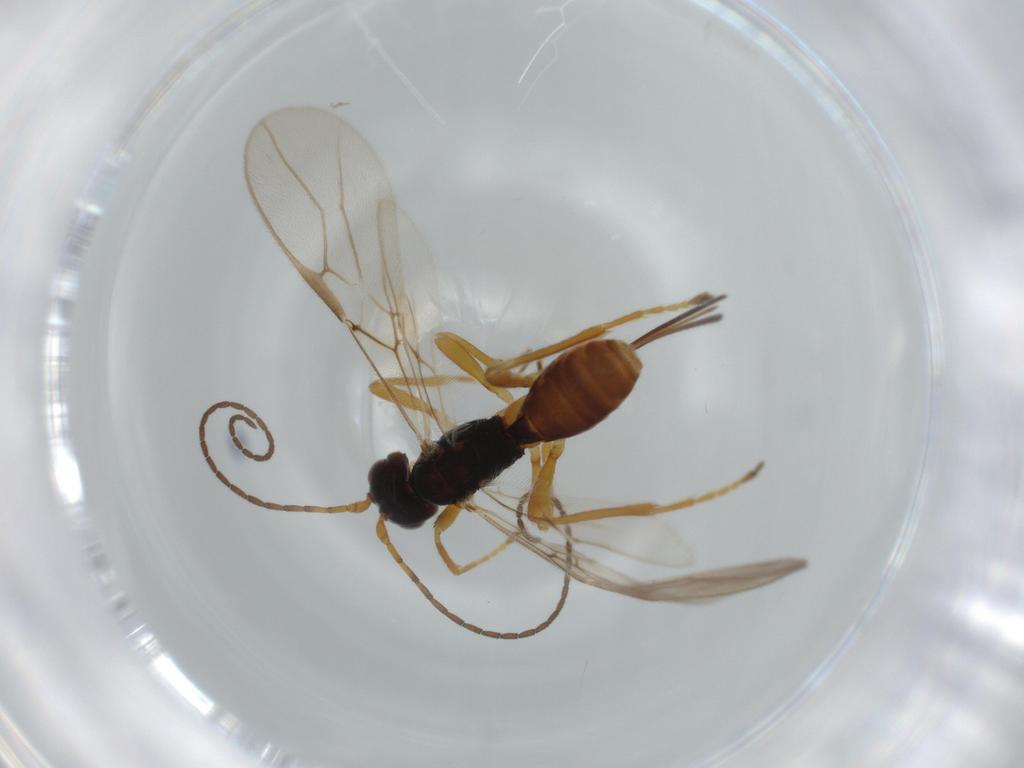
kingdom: Animalia
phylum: Arthropoda
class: Insecta
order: Hymenoptera
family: Braconidae
